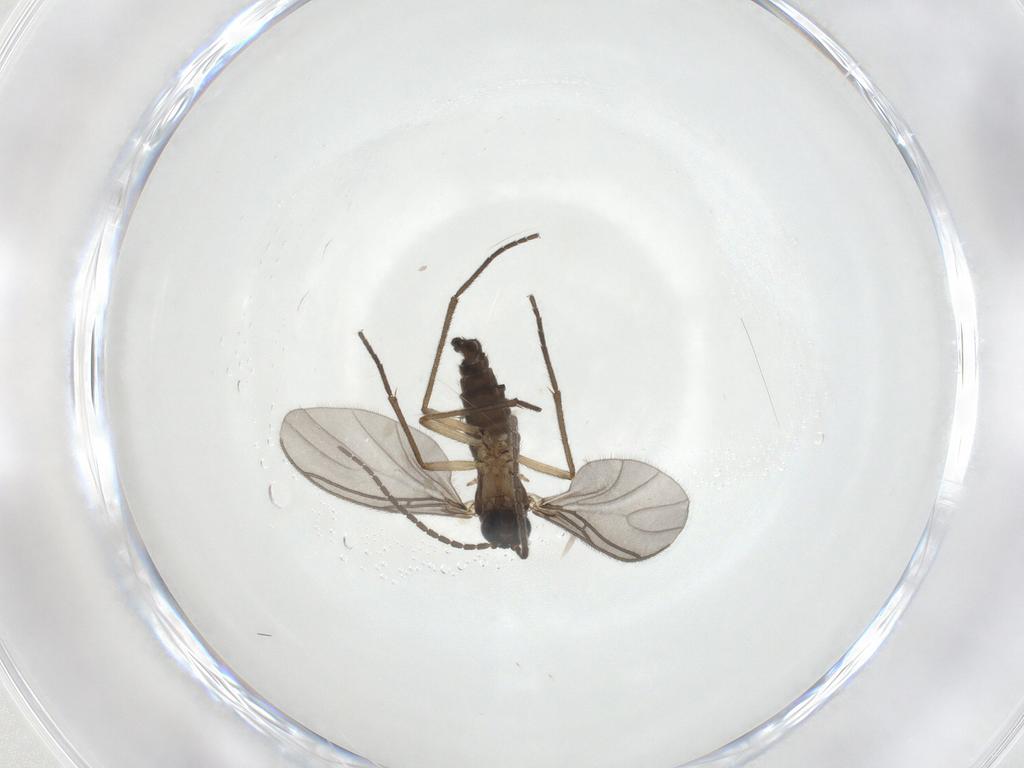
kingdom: Animalia
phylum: Arthropoda
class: Insecta
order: Diptera
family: Sciaridae
